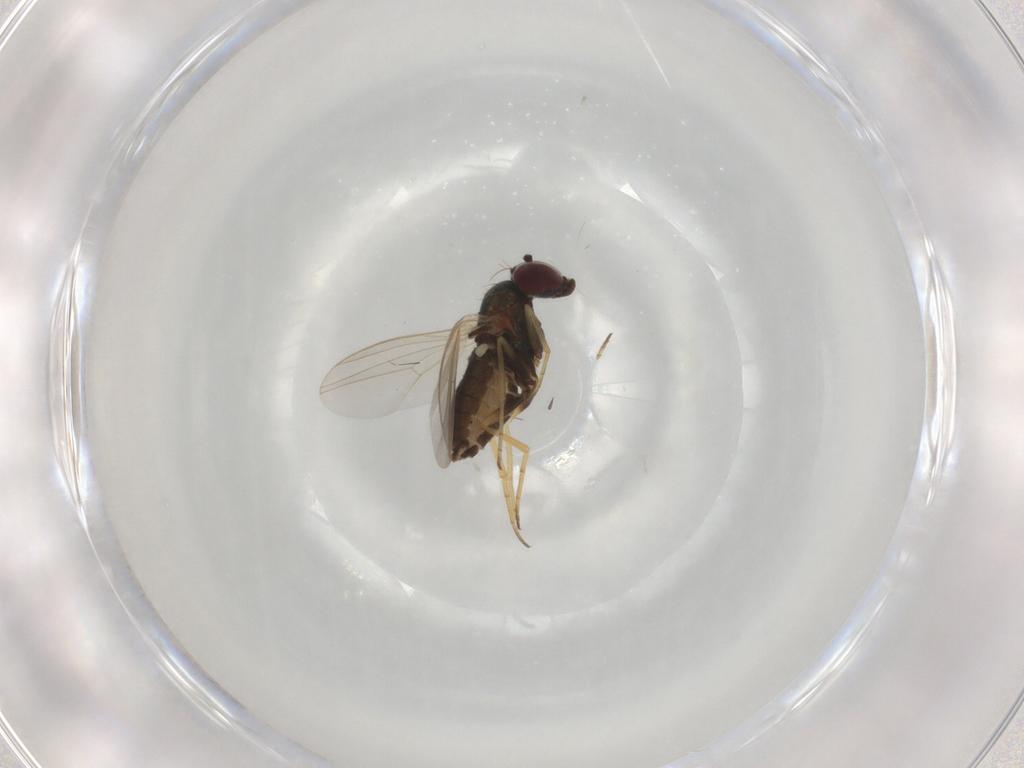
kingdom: Animalia
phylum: Arthropoda
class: Insecta
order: Diptera
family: Dolichopodidae
